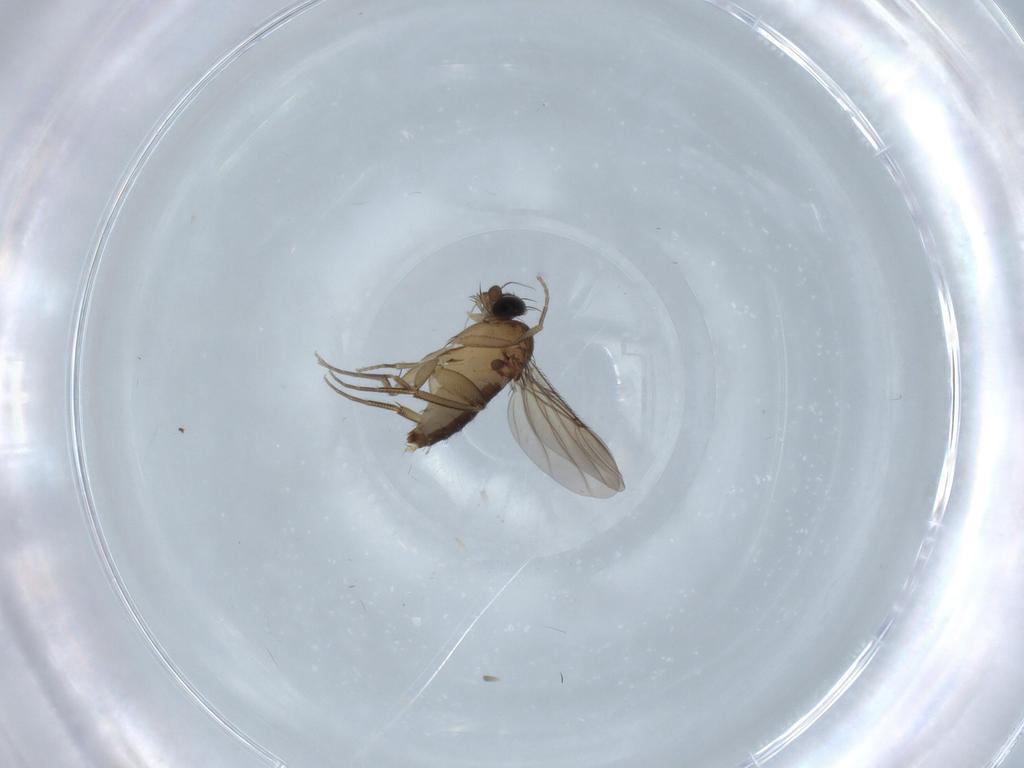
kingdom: Animalia
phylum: Arthropoda
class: Insecta
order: Diptera
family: Phoridae
